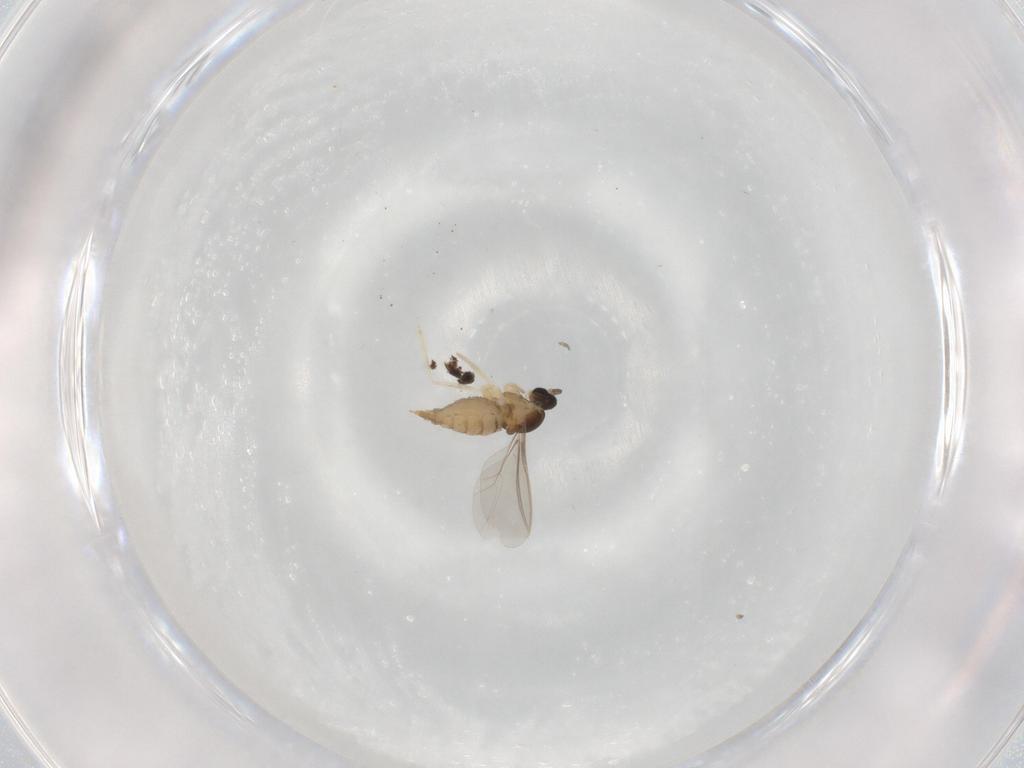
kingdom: Animalia
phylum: Arthropoda
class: Insecta
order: Diptera
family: Cecidomyiidae
